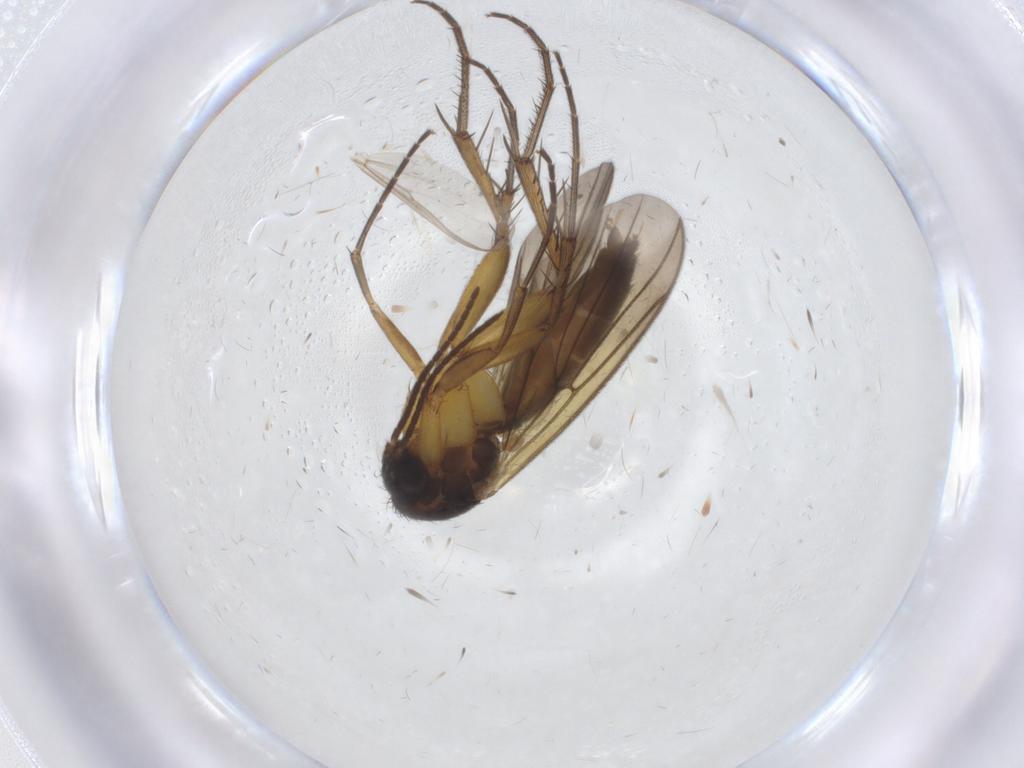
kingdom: Animalia
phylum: Arthropoda
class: Insecta
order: Diptera
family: Mycetophilidae
